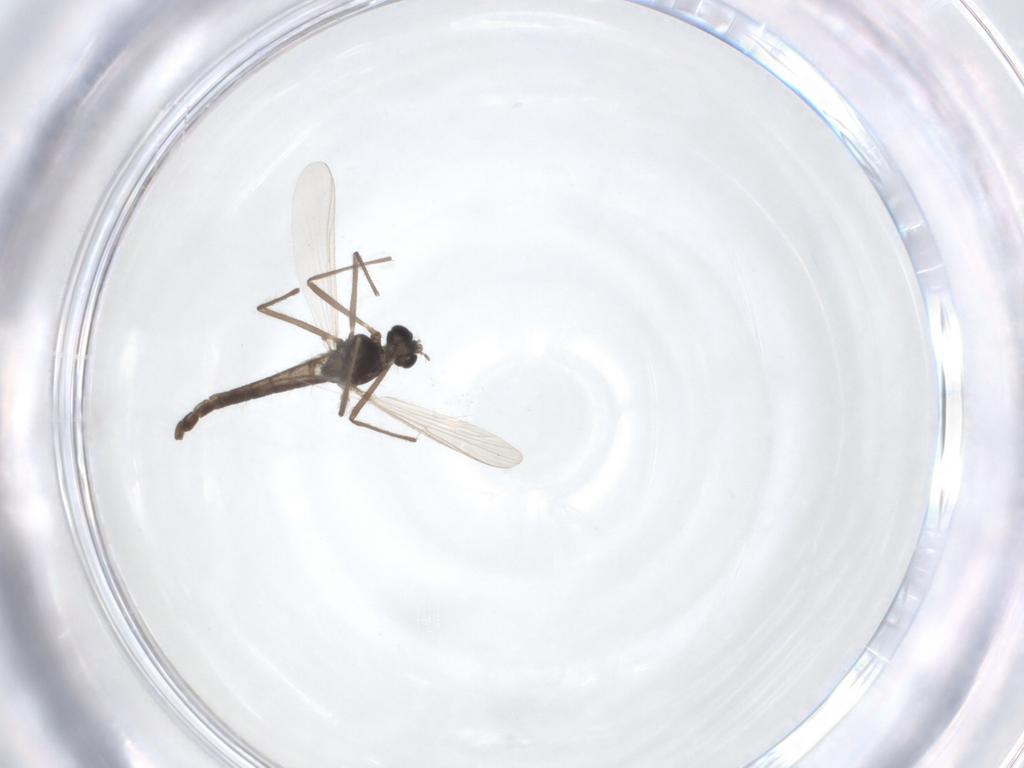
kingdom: Animalia
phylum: Arthropoda
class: Insecta
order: Diptera
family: Chironomidae
